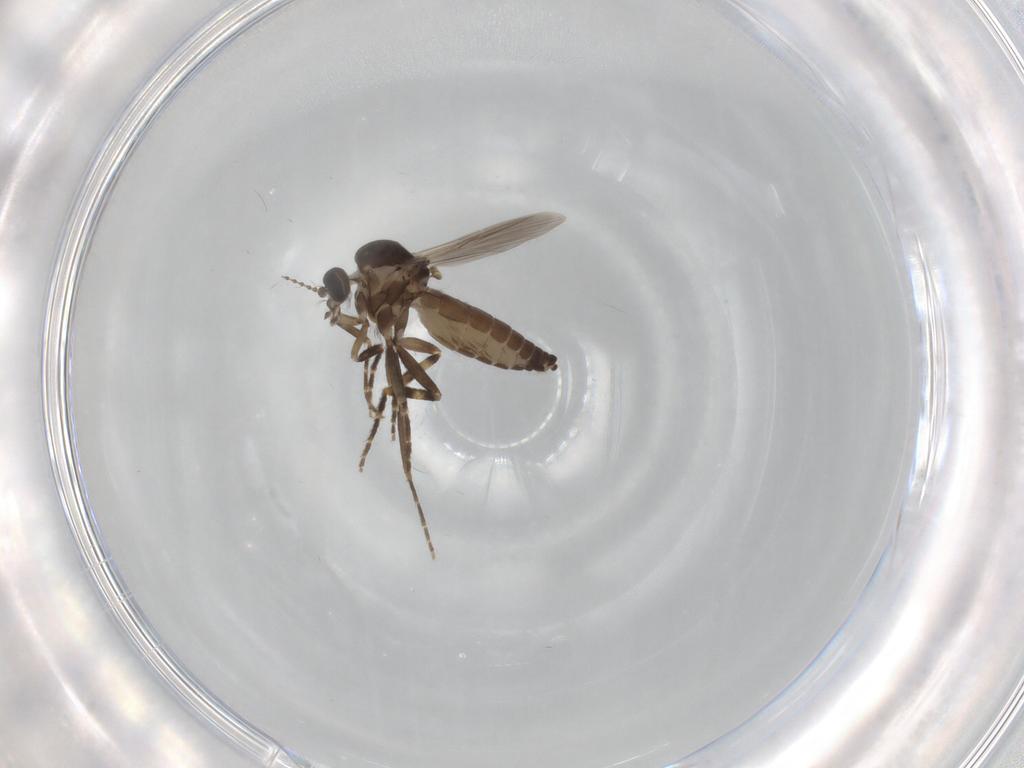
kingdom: Animalia
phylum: Arthropoda
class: Insecta
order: Diptera
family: Ceratopogonidae
